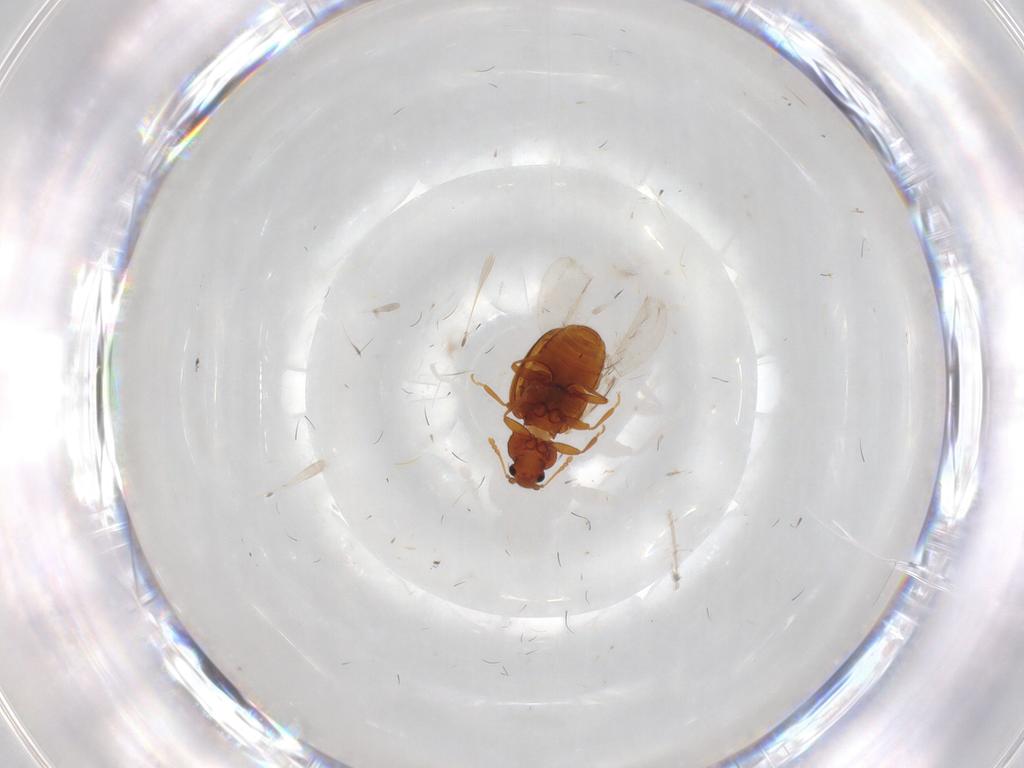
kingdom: Animalia
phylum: Arthropoda
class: Insecta
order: Coleoptera
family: Latridiidae
